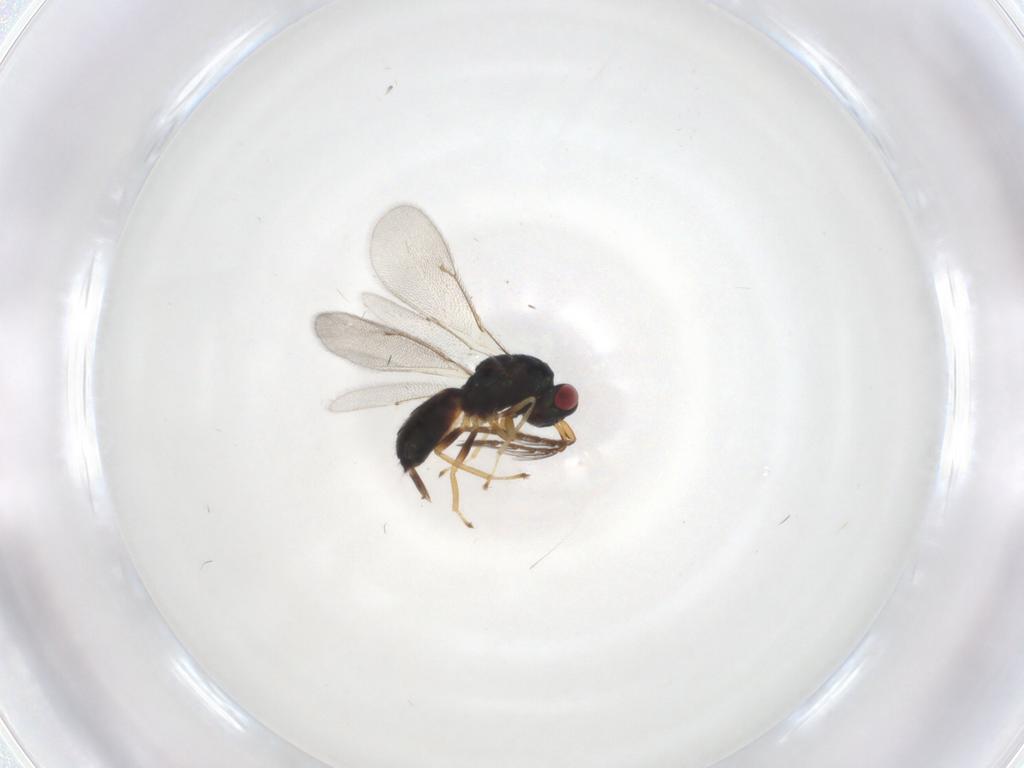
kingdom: Animalia
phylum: Arthropoda
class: Insecta
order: Hymenoptera
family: Eulophidae
